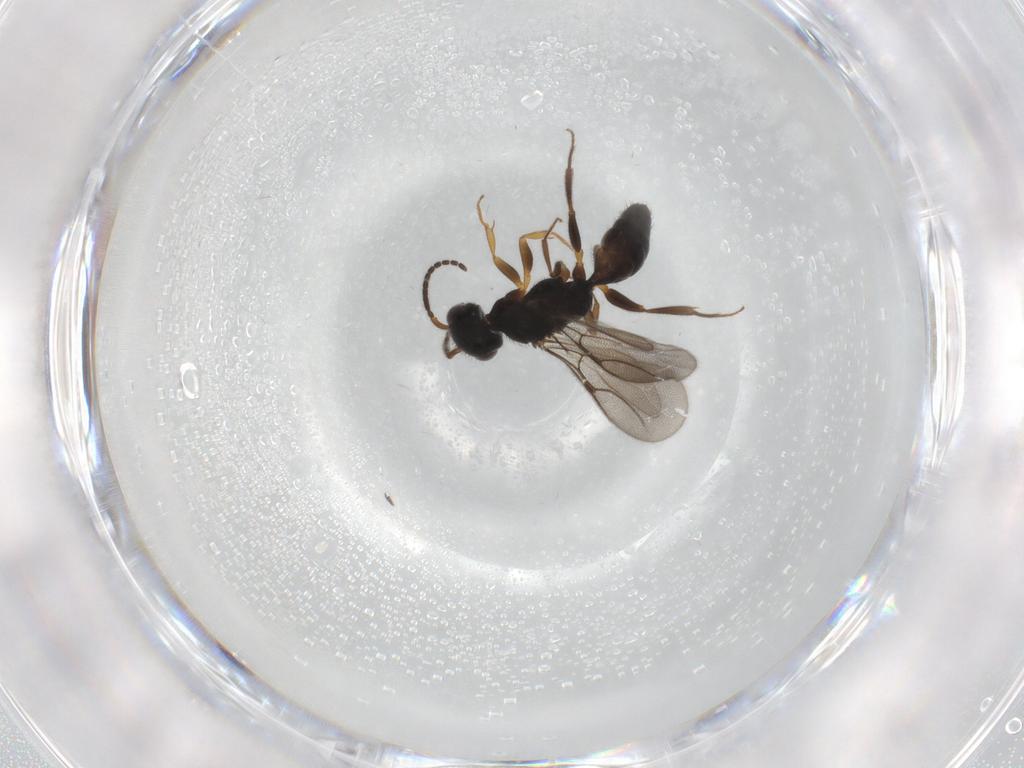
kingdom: Animalia
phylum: Arthropoda
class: Insecta
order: Hymenoptera
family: Bethylidae
